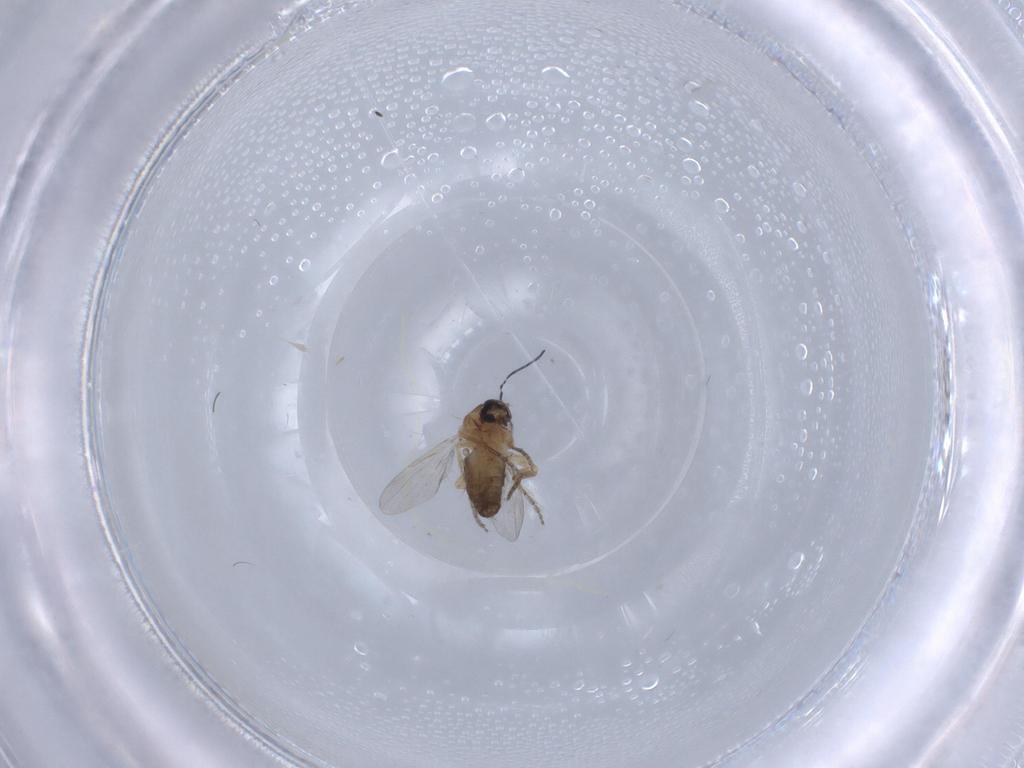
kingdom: Animalia
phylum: Arthropoda
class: Insecta
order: Diptera
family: Ceratopogonidae
